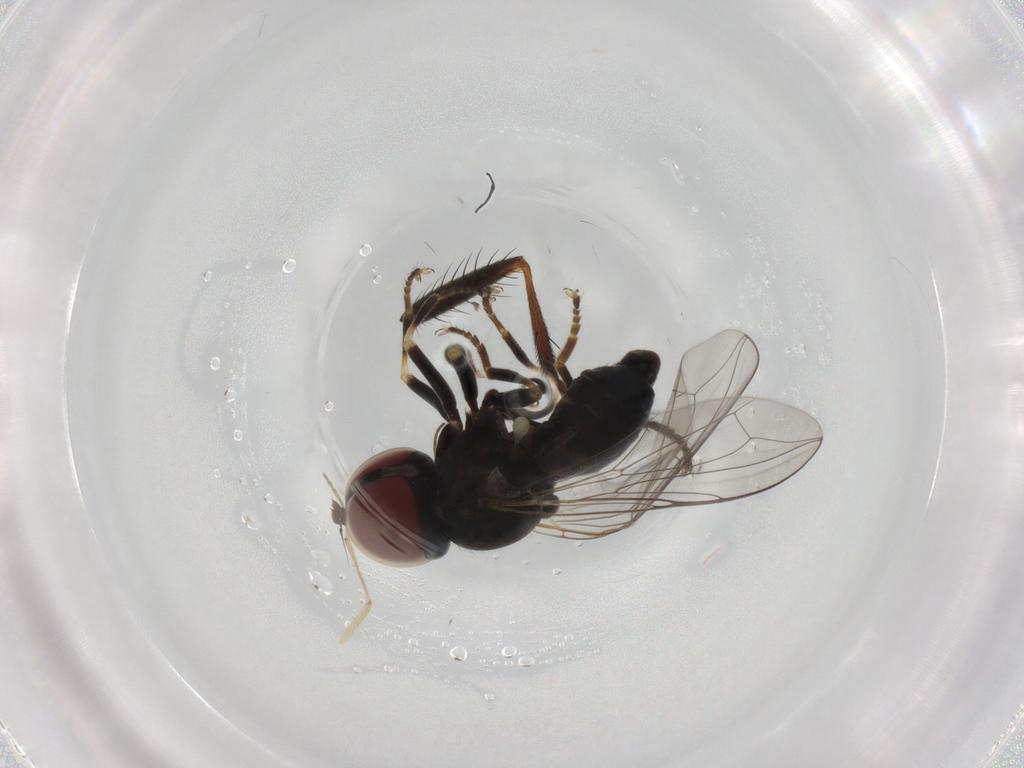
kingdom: Animalia
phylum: Arthropoda
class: Insecta
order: Diptera
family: Pipunculidae
